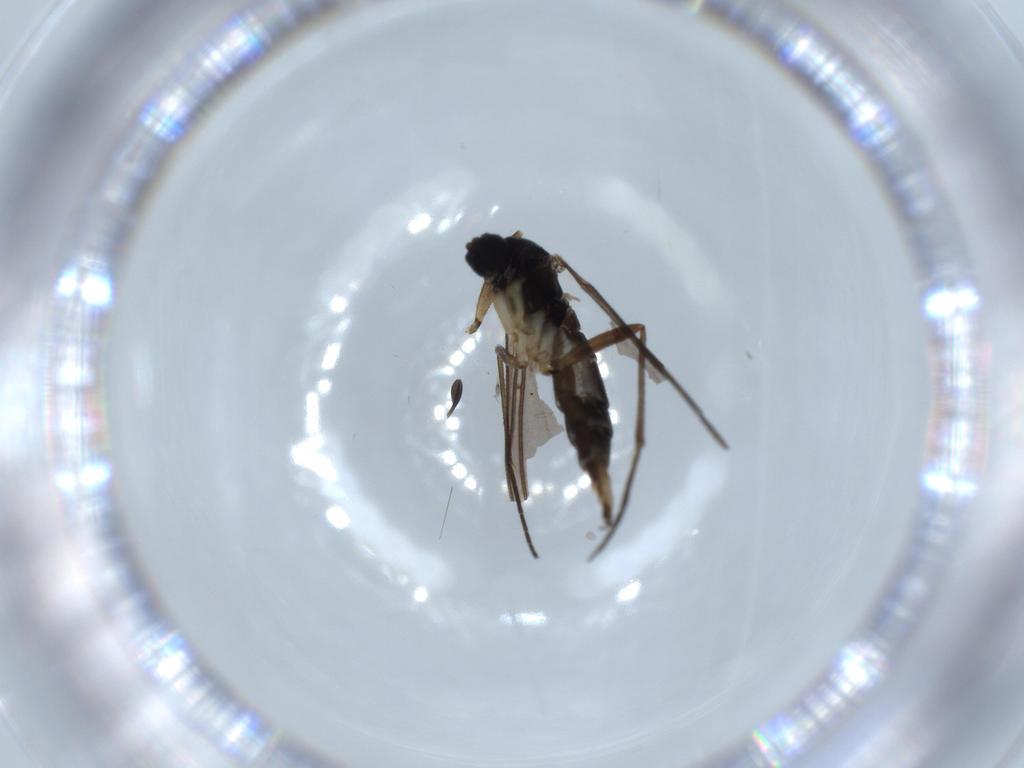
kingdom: Animalia
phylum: Arthropoda
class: Insecta
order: Diptera
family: Sciaridae
